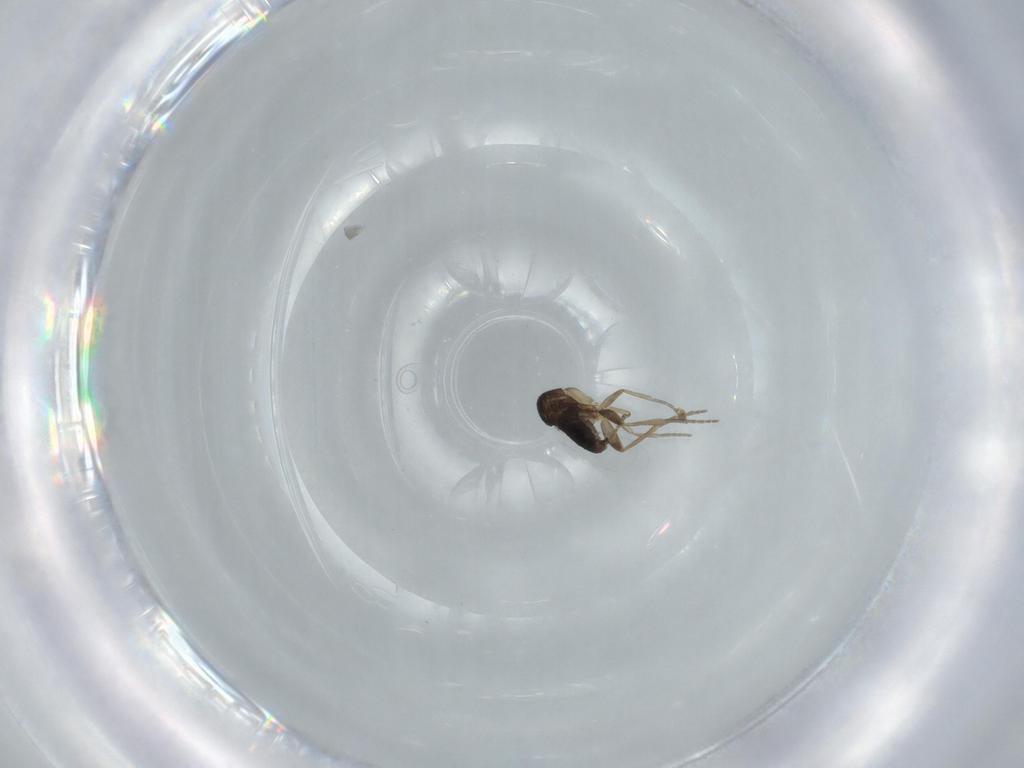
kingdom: Animalia
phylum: Arthropoda
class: Insecta
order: Diptera
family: Phoridae
